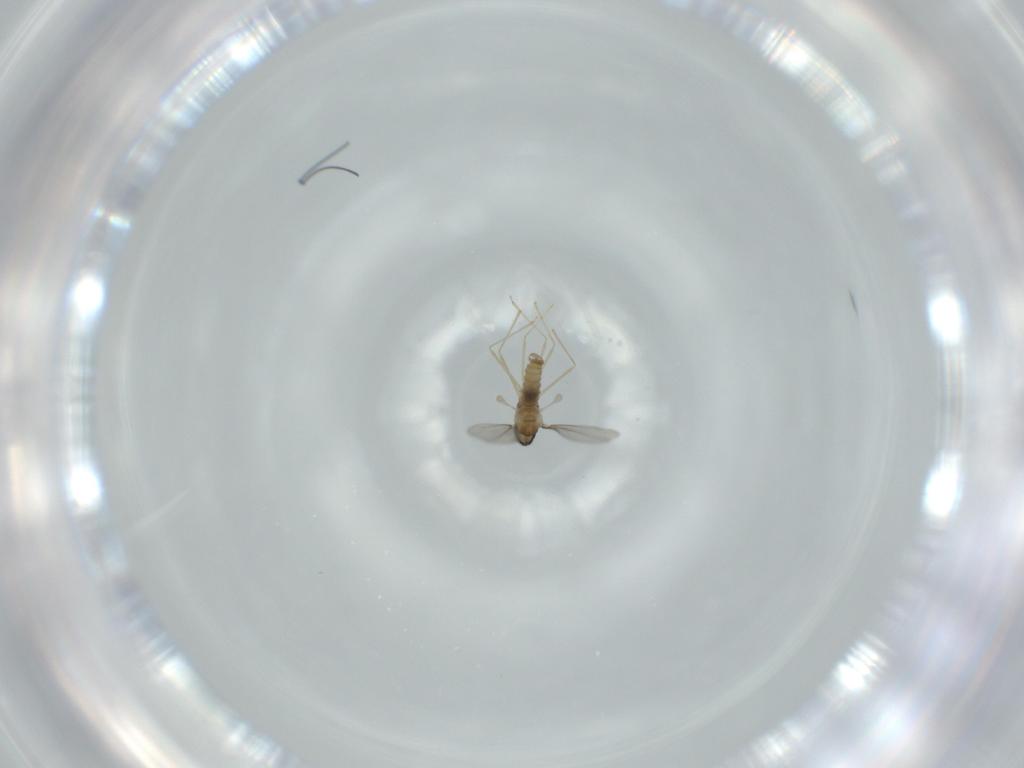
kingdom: Animalia
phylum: Arthropoda
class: Insecta
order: Diptera
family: Cecidomyiidae
